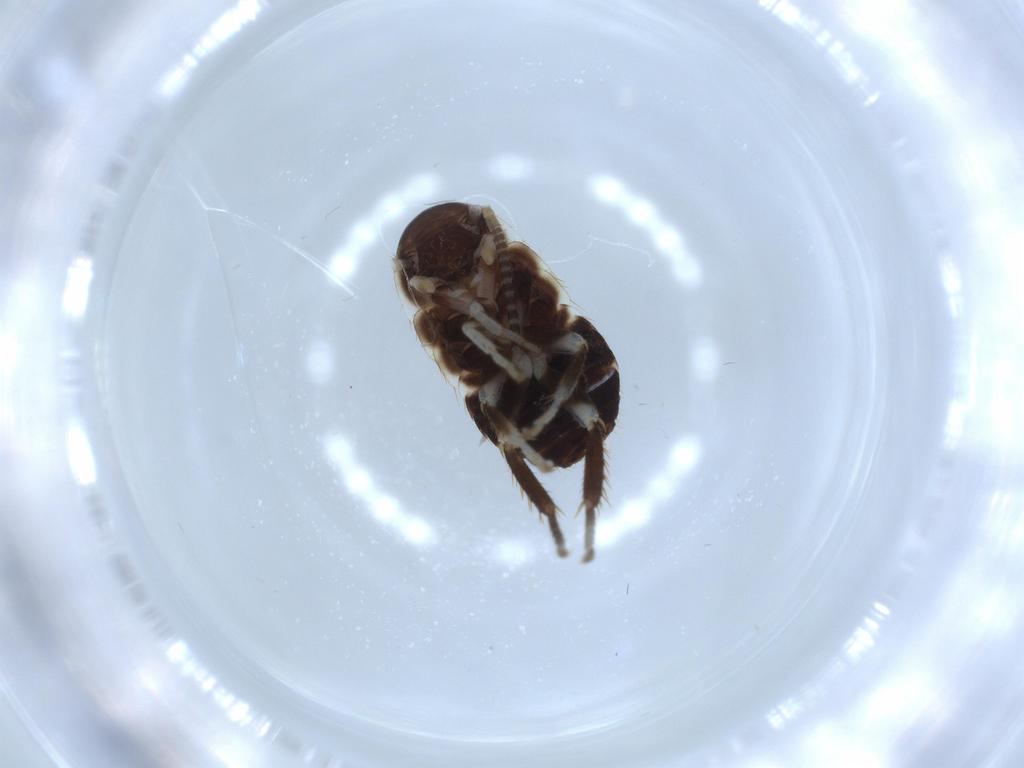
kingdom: Animalia
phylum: Arthropoda
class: Insecta
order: Blattodea
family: Ectobiidae
